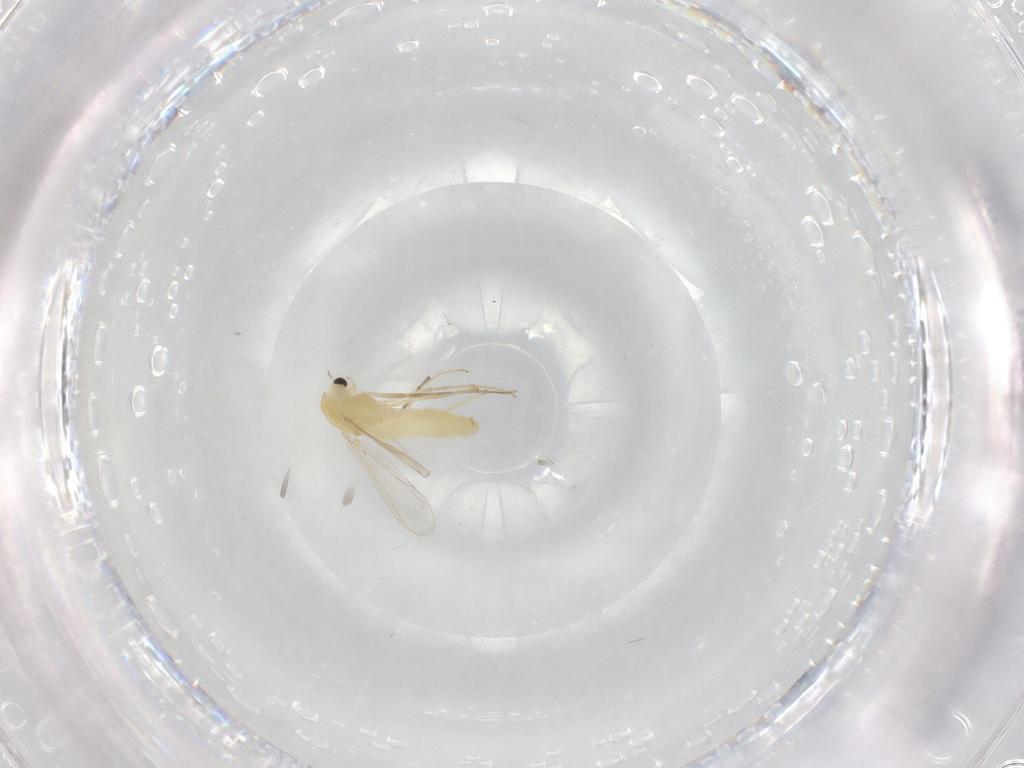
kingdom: Animalia
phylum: Arthropoda
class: Insecta
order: Diptera
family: Chironomidae
